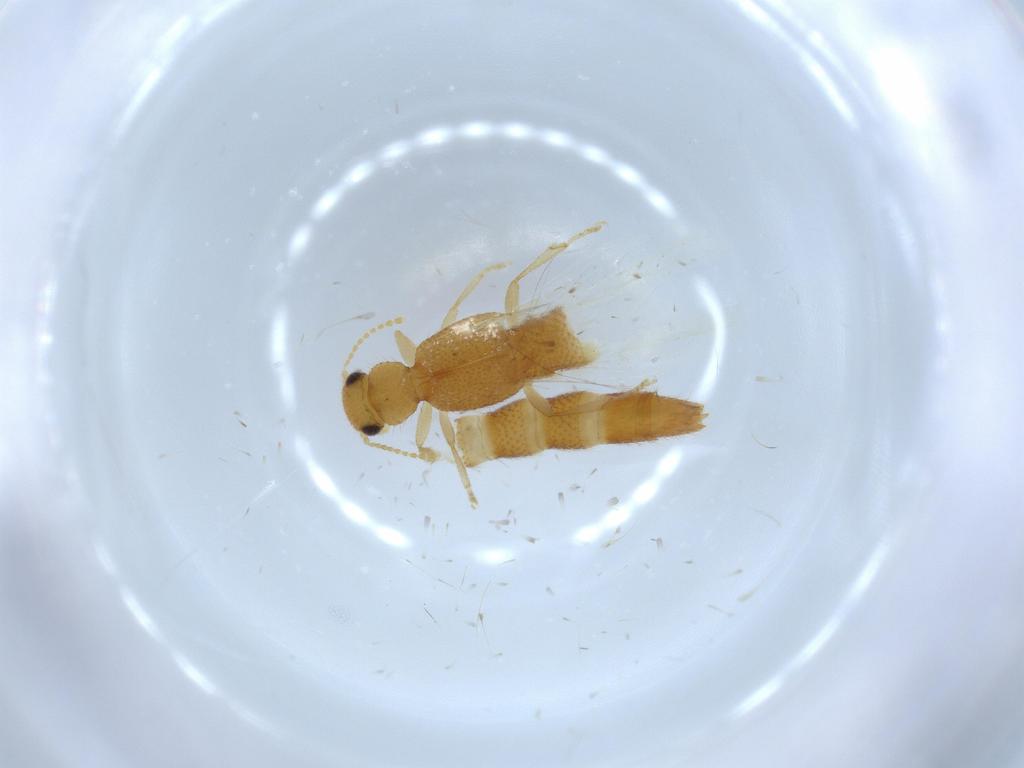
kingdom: Animalia
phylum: Arthropoda
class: Insecta
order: Coleoptera
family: Staphylinidae
